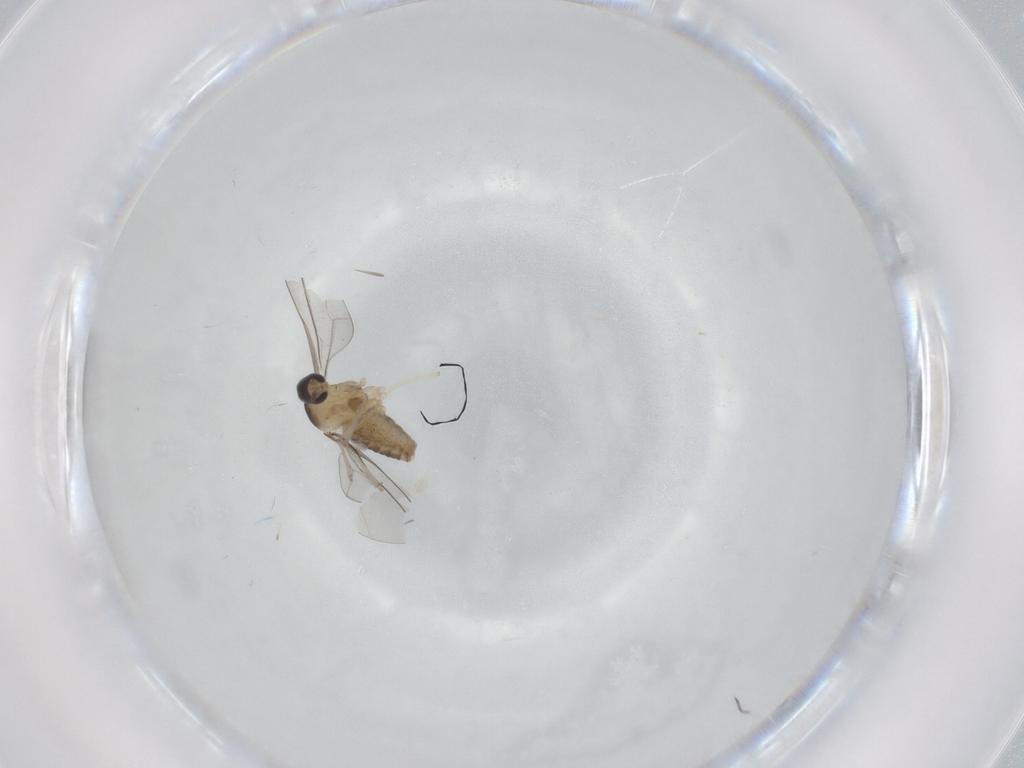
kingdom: Animalia
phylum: Arthropoda
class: Insecta
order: Diptera
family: Cecidomyiidae
